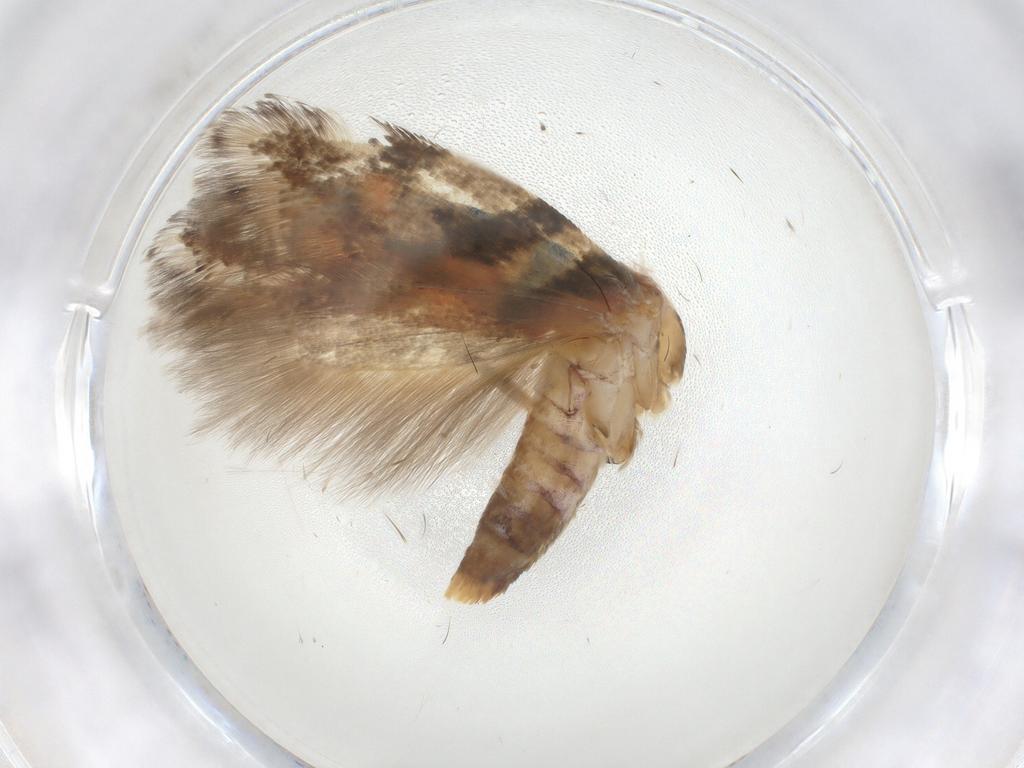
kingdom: Animalia
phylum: Arthropoda
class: Insecta
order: Lepidoptera
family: Gelechiidae
